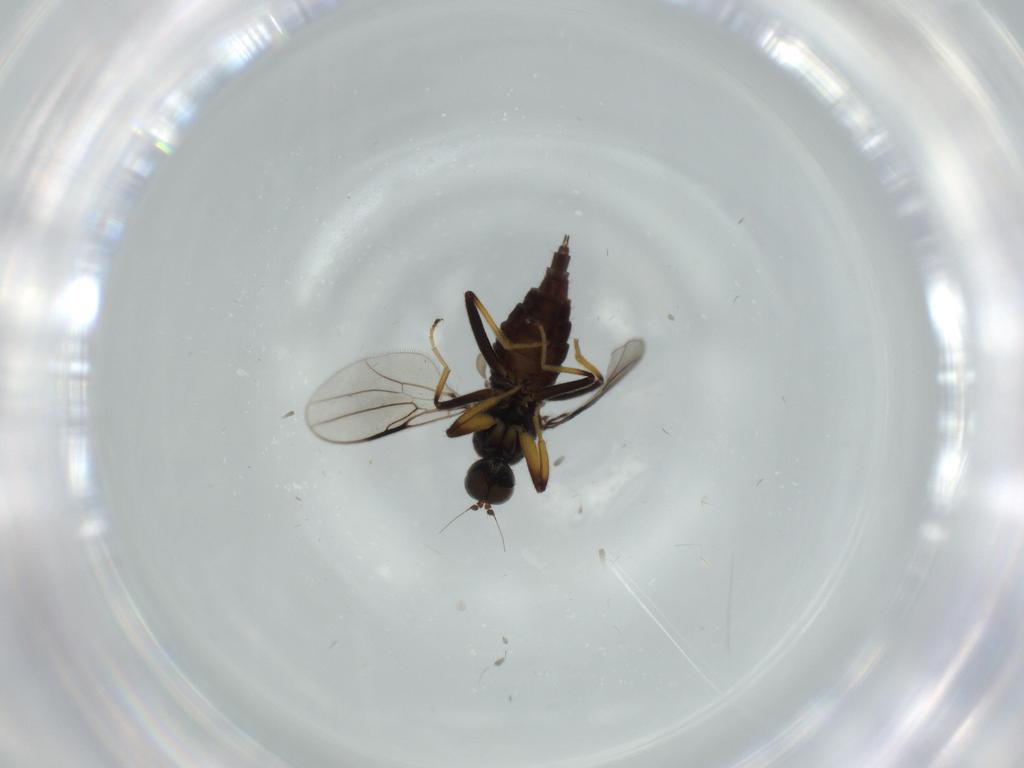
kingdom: Animalia
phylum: Arthropoda
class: Insecta
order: Diptera
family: Hybotidae
